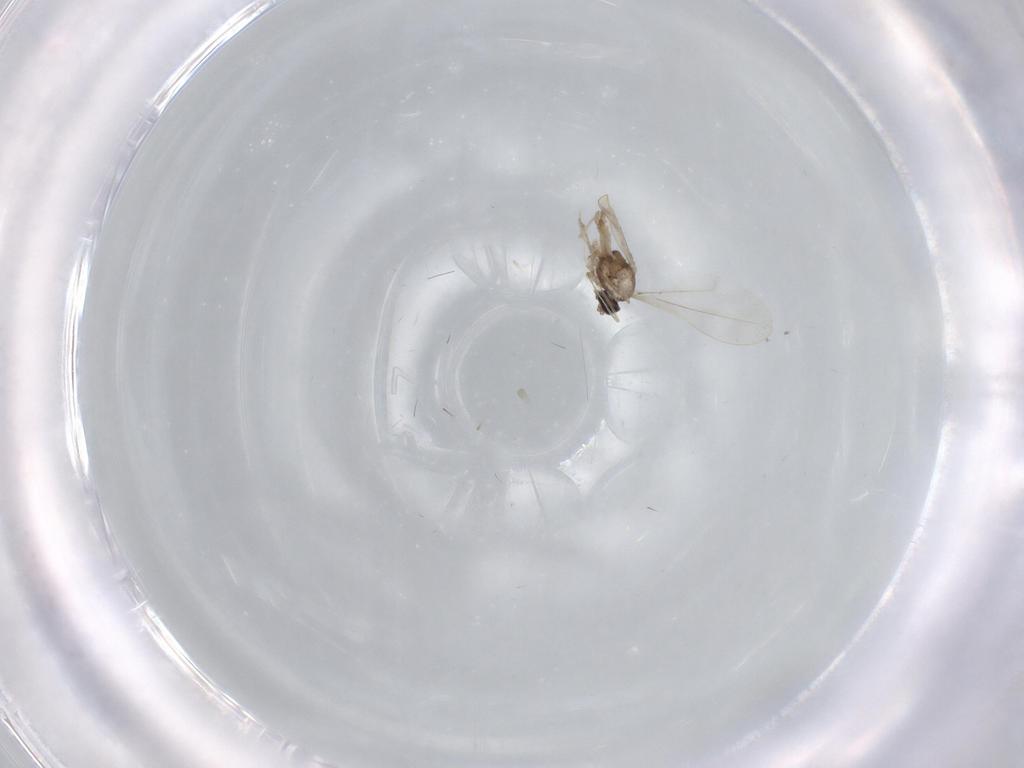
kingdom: Animalia
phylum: Arthropoda
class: Insecta
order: Diptera
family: Cecidomyiidae
